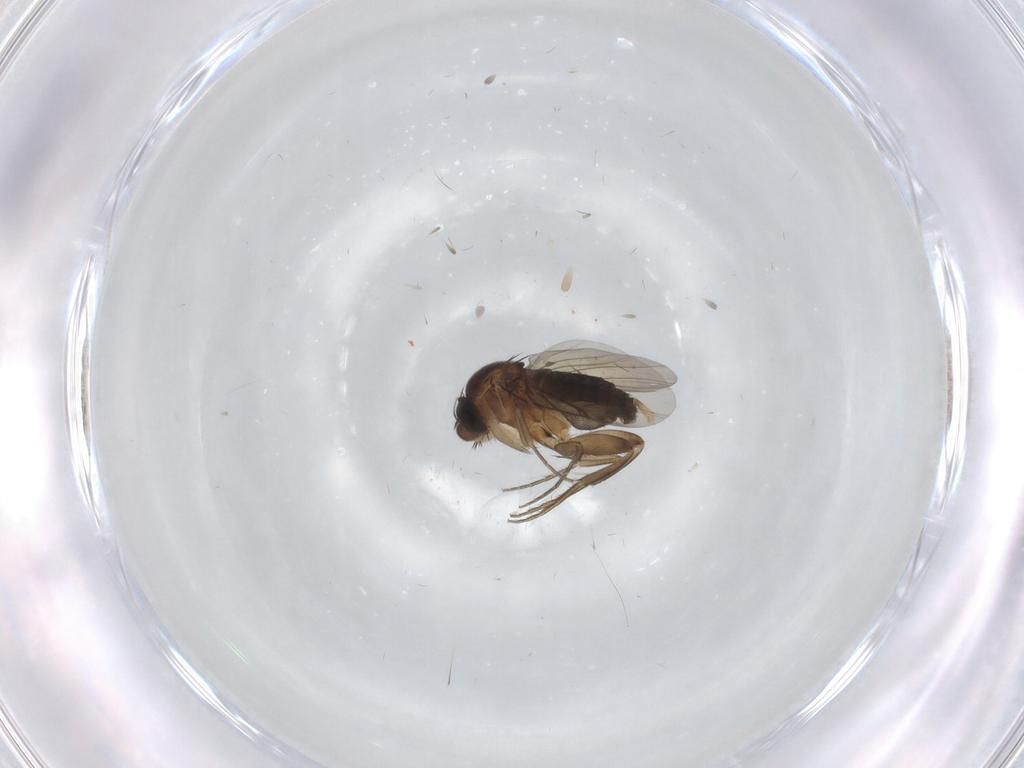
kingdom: Animalia
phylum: Arthropoda
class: Insecta
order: Diptera
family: Phoridae
